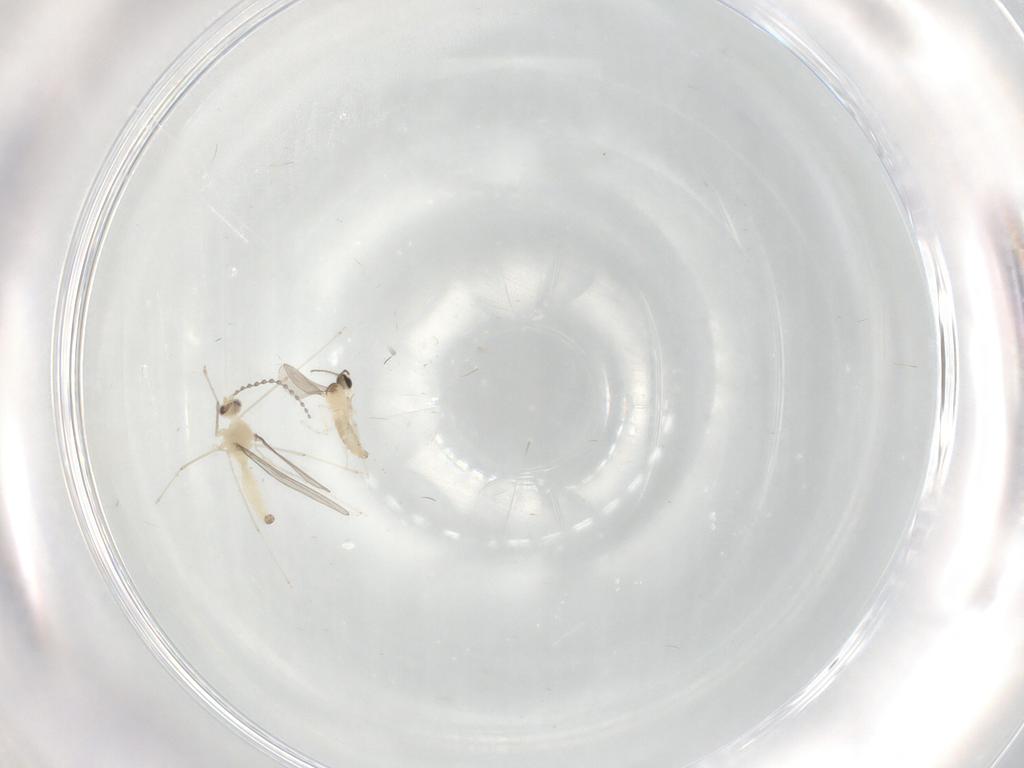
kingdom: Animalia
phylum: Arthropoda
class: Insecta
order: Diptera
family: Cecidomyiidae
